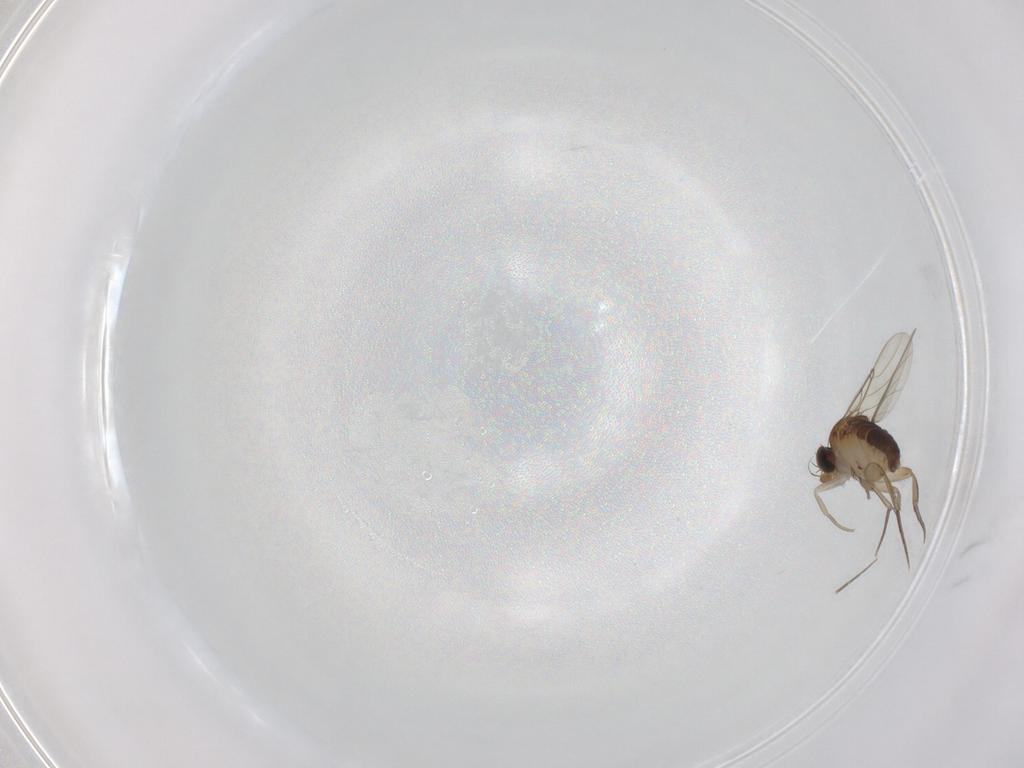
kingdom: Animalia
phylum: Arthropoda
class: Insecta
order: Diptera
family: Phoridae
